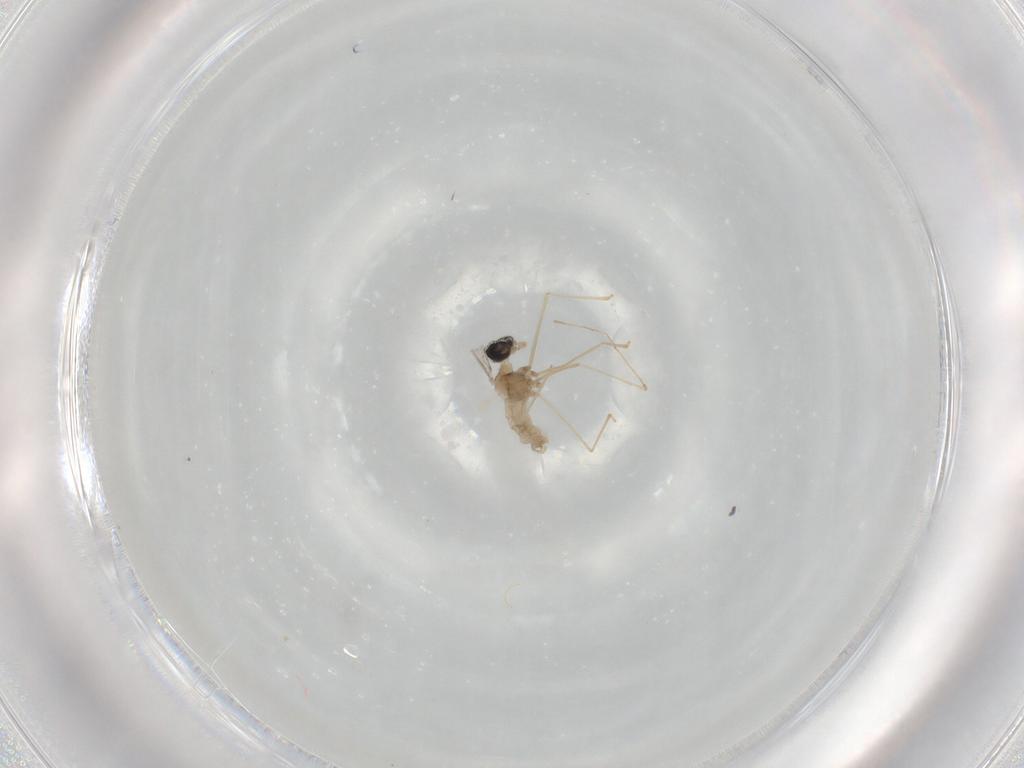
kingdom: Animalia
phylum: Arthropoda
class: Insecta
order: Diptera
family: Cecidomyiidae
